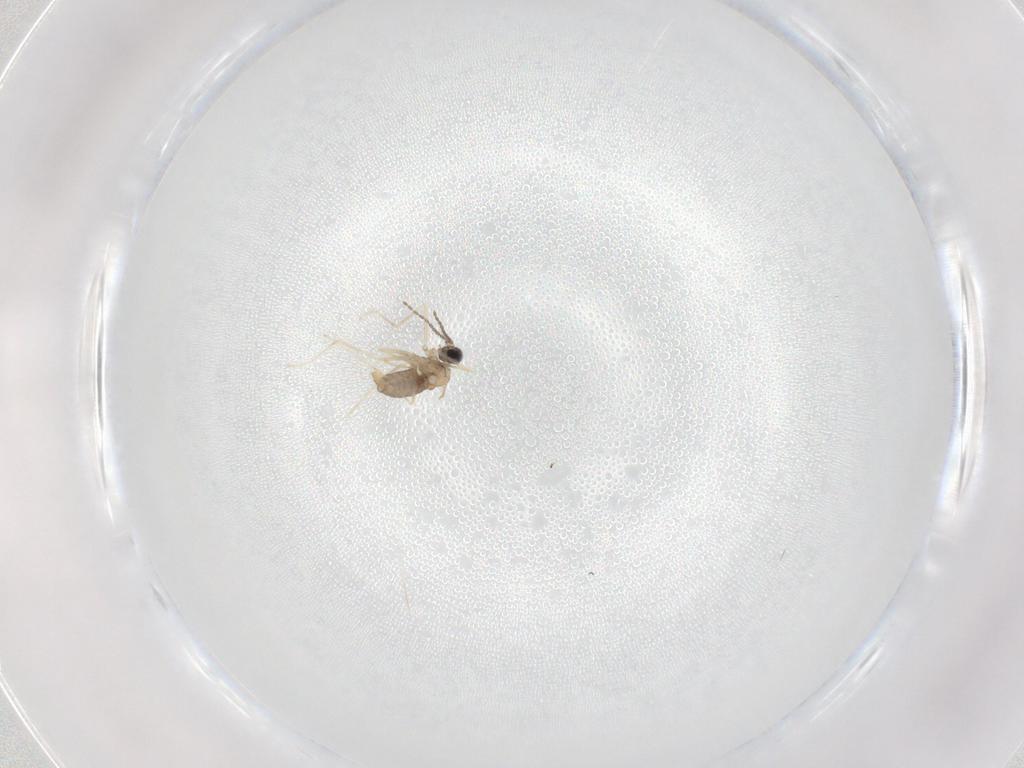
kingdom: Animalia
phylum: Arthropoda
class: Insecta
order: Diptera
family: Cecidomyiidae
